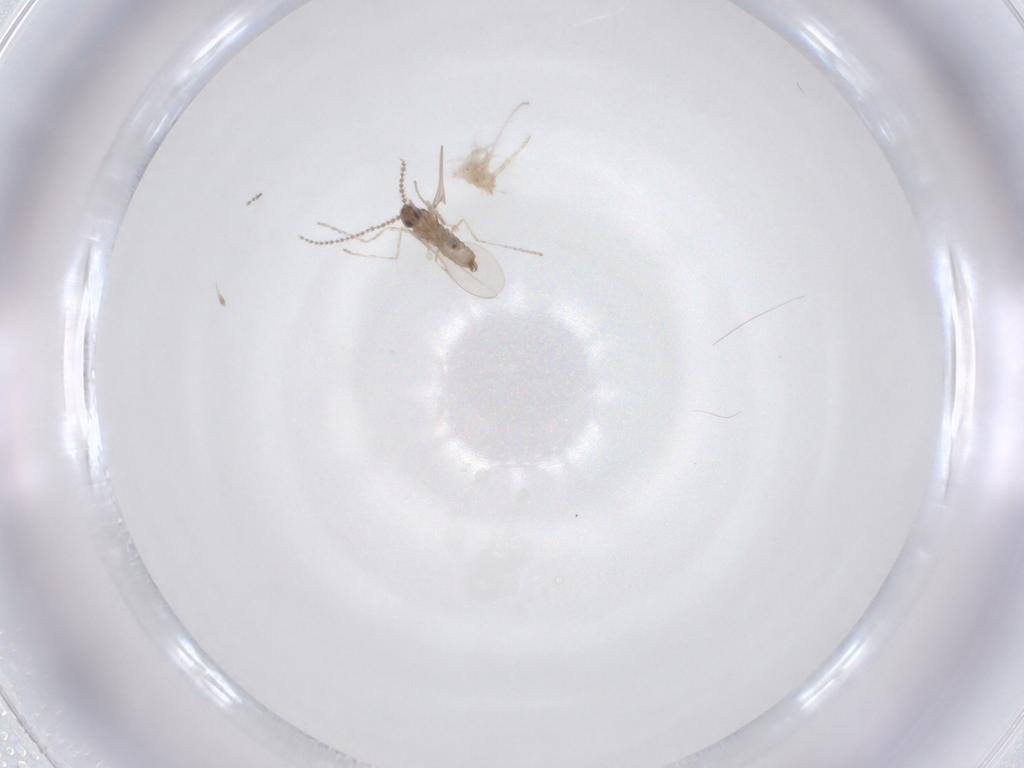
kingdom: Animalia
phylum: Arthropoda
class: Insecta
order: Diptera
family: Cecidomyiidae
